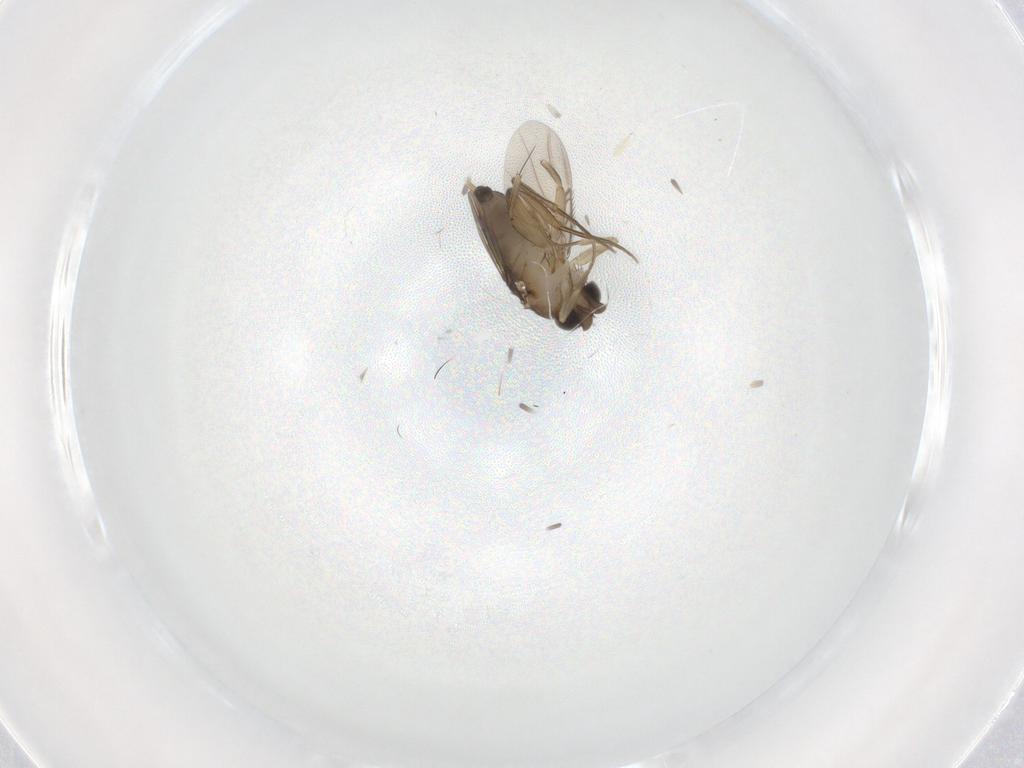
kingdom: Animalia
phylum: Arthropoda
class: Insecta
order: Diptera
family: Phoridae
